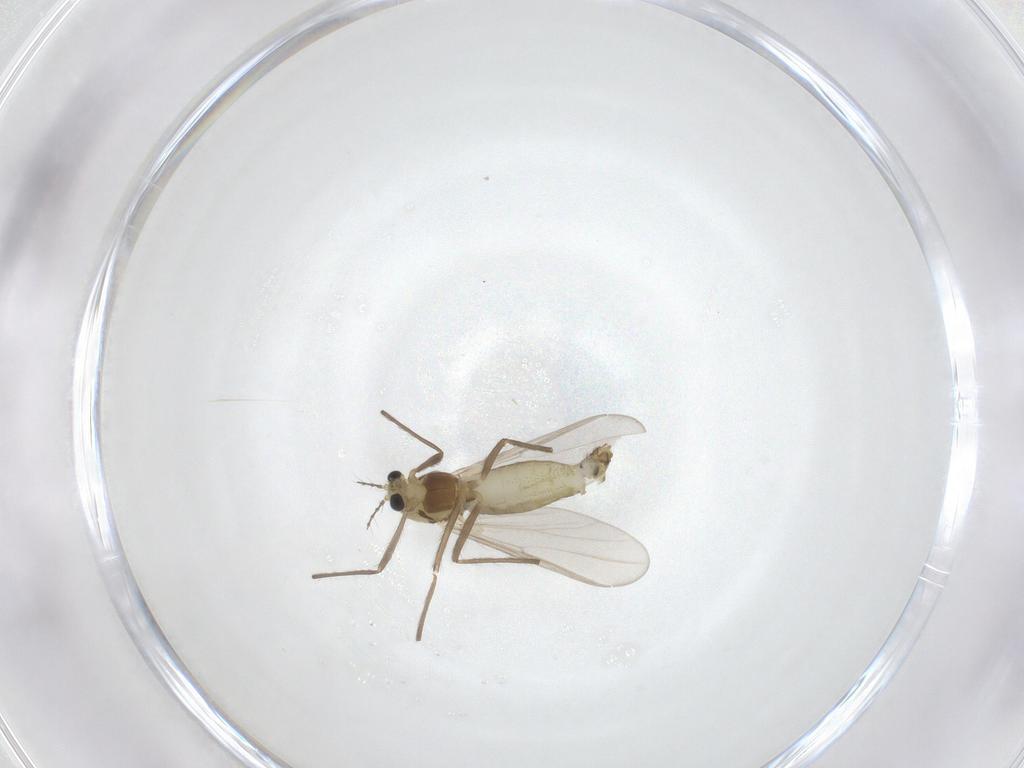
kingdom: Animalia
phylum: Arthropoda
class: Insecta
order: Diptera
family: Chironomidae
